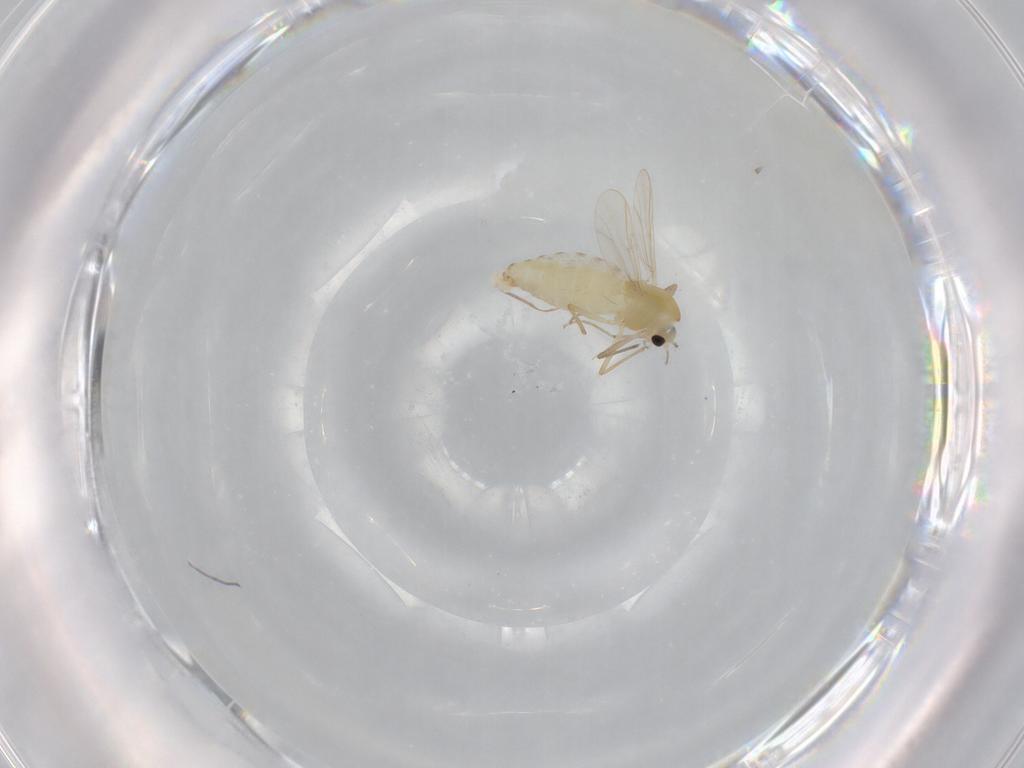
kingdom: Animalia
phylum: Arthropoda
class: Insecta
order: Diptera
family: Chironomidae
